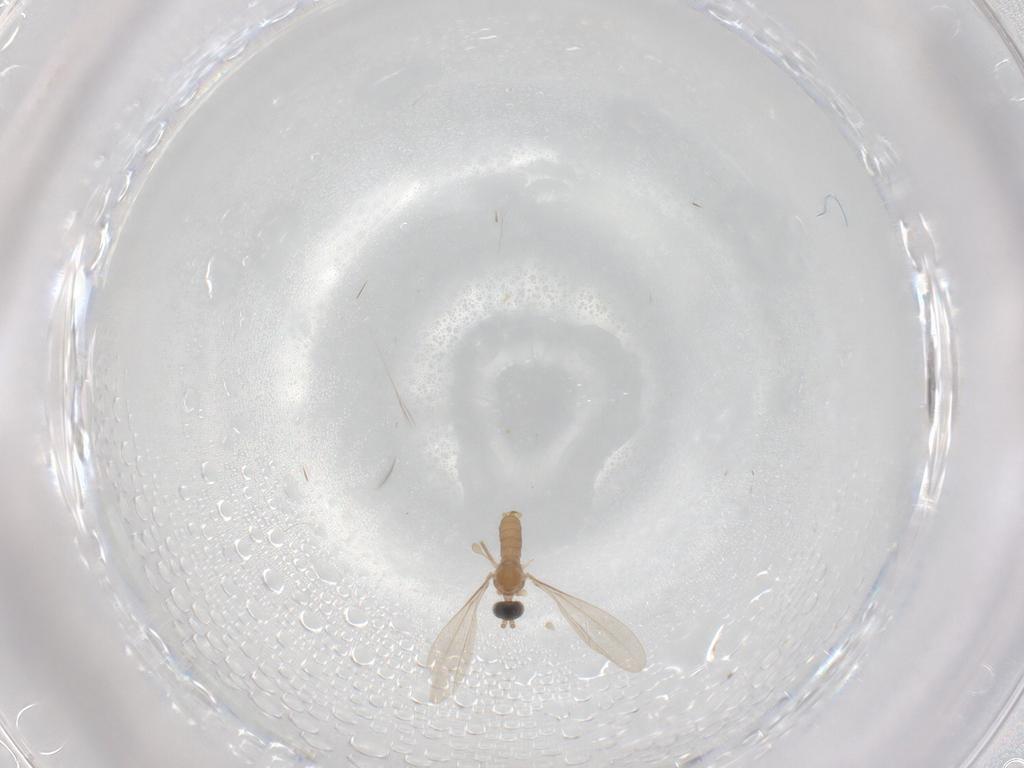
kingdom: Animalia
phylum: Arthropoda
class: Insecta
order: Diptera
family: Cecidomyiidae
